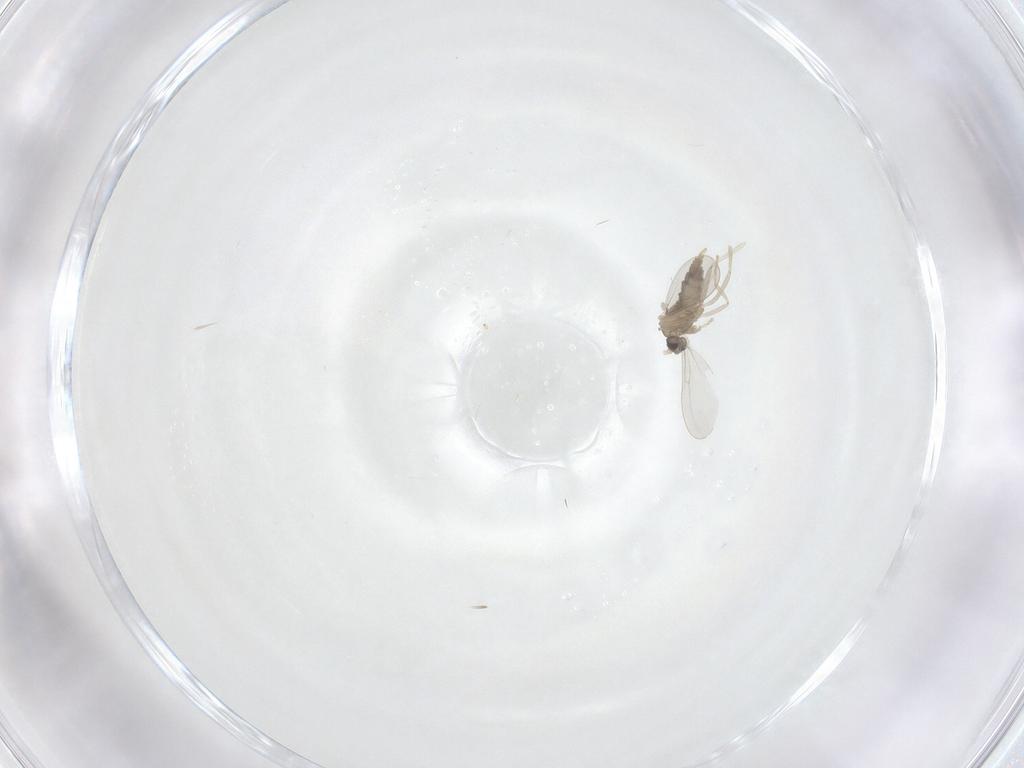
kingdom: Animalia
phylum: Arthropoda
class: Insecta
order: Diptera
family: Cecidomyiidae
